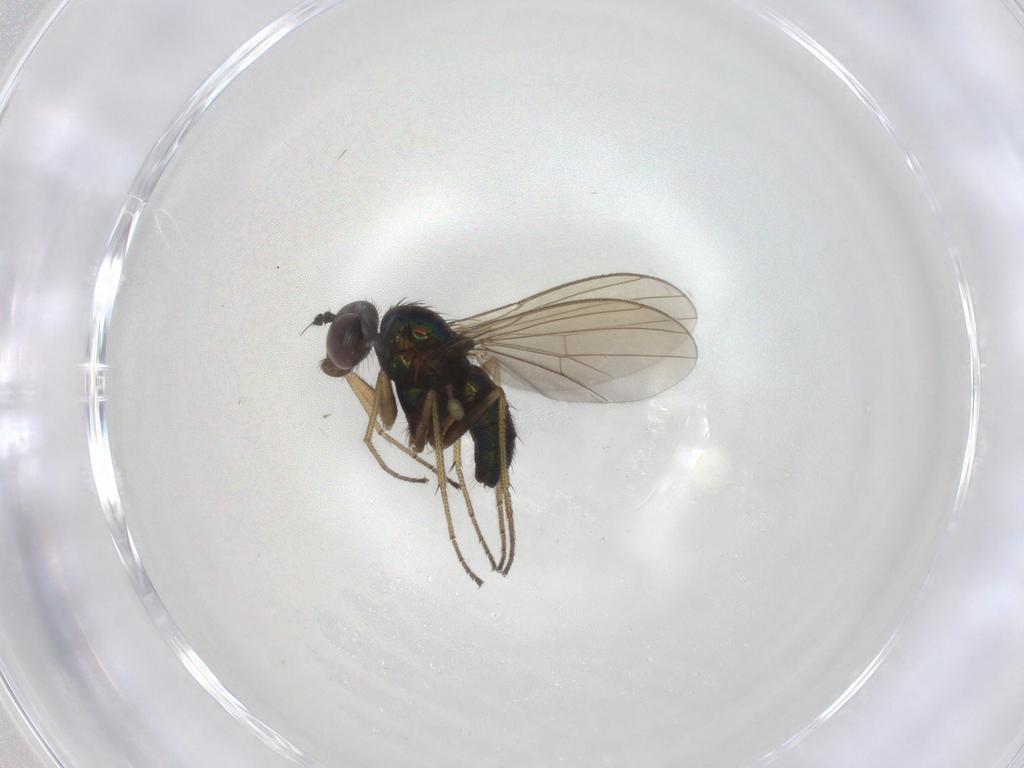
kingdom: Animalia
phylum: Arthropoda
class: Insecta
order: Diptera
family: Dolichopodidae
